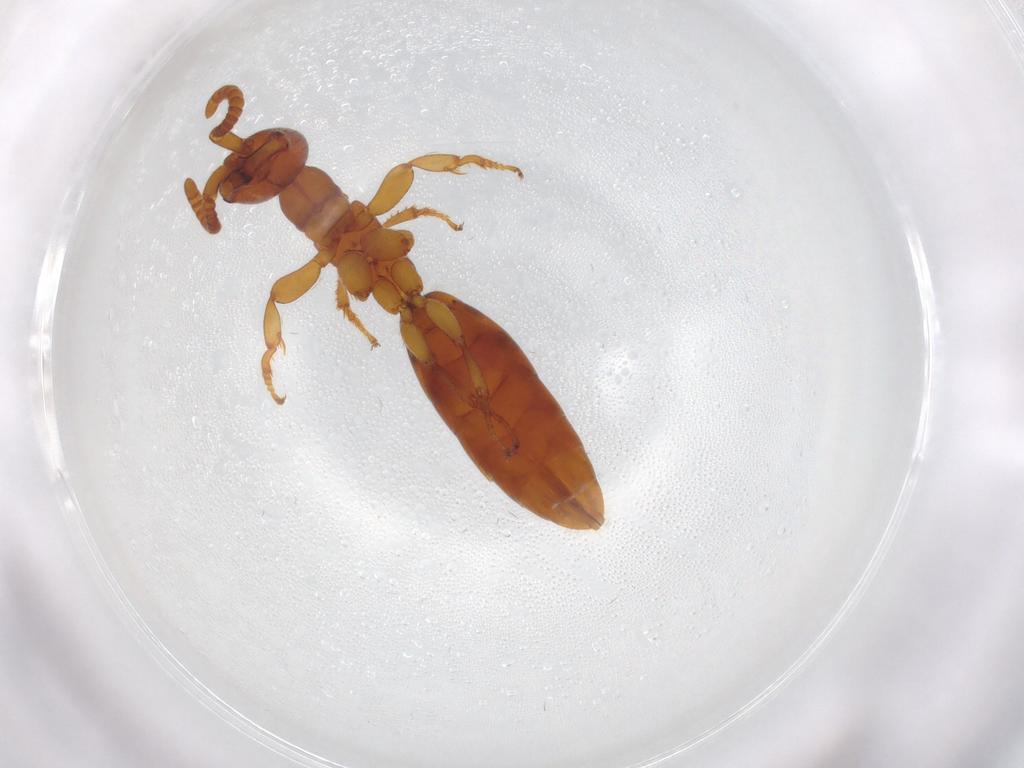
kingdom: Animalia
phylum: Arthropoda
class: Insecta
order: Hymenoptera
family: Bethylidae
